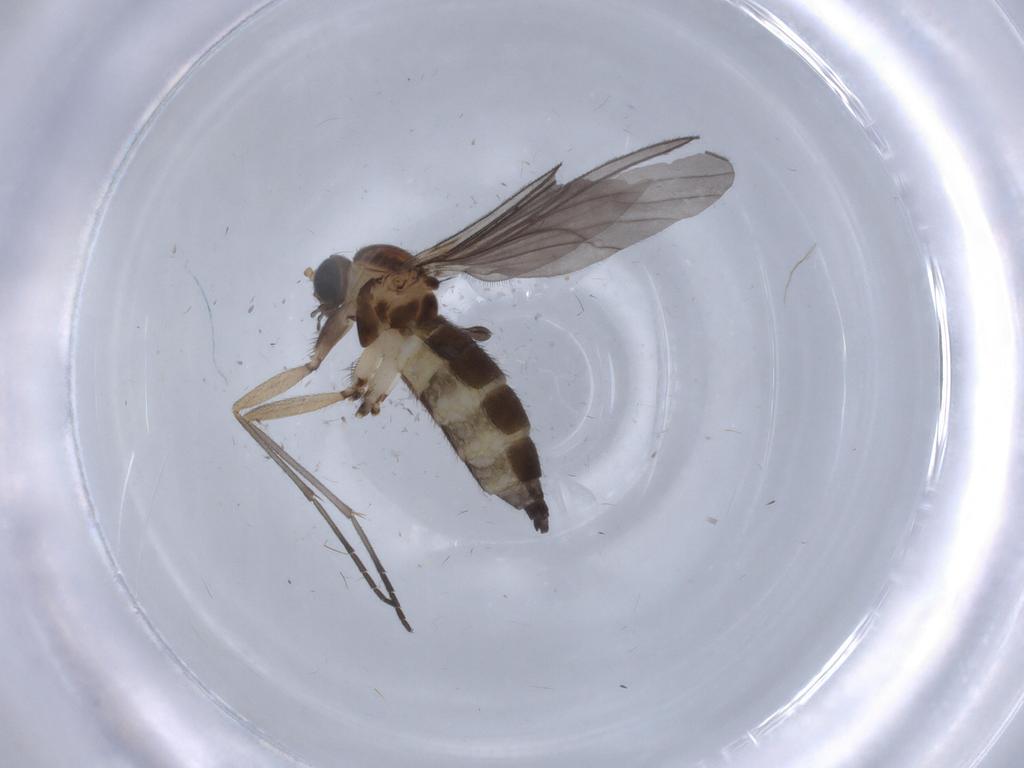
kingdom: Animalia
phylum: Arthropoda
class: Insecta
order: Diptera
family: Sciaridae
